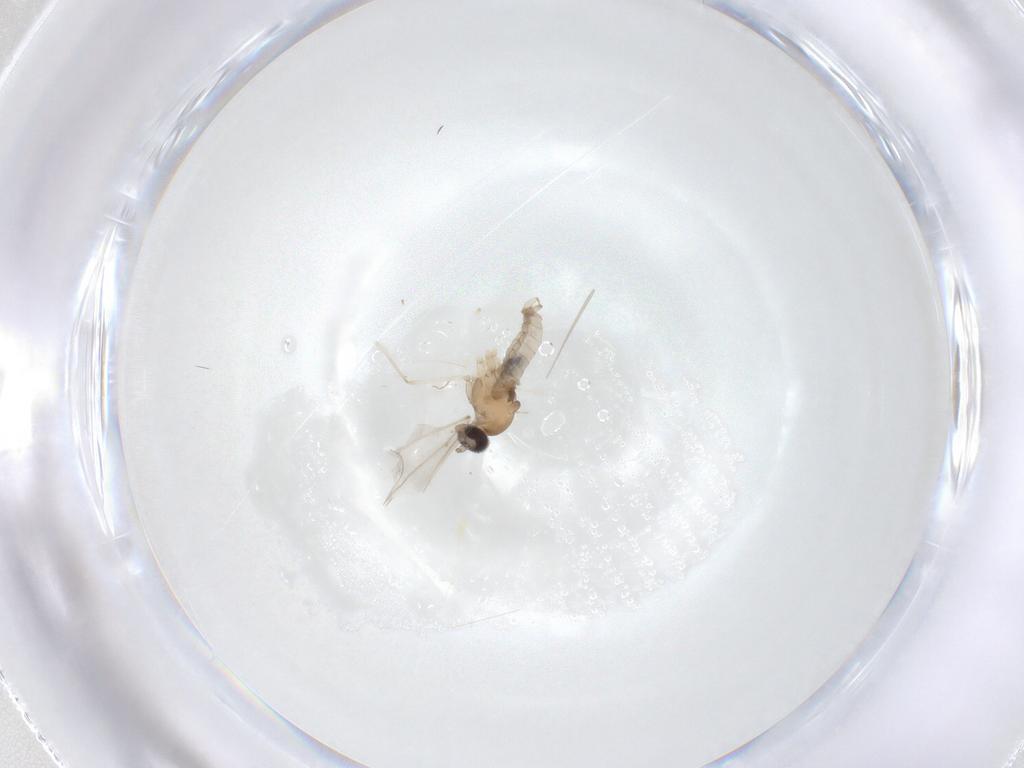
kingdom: Animalia
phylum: Arthropoda
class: Insecta
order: Diptera
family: Cecidomyiidae
